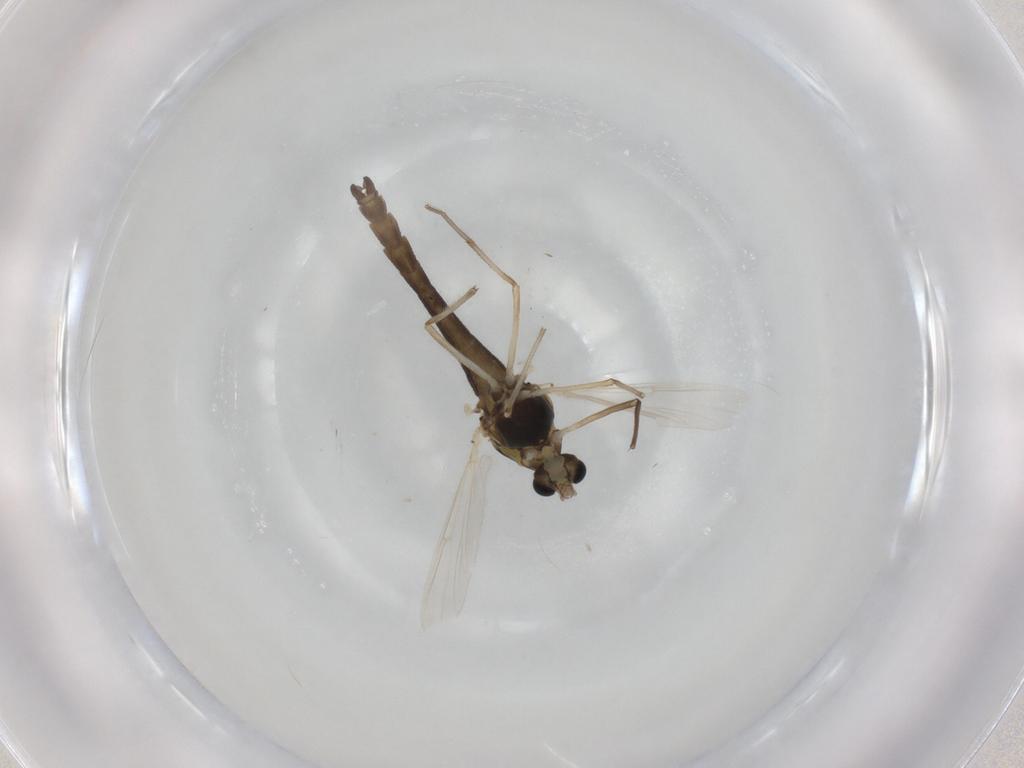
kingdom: Animalia
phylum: Arthropoda
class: Insecta
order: Diptera
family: Chironomidae
